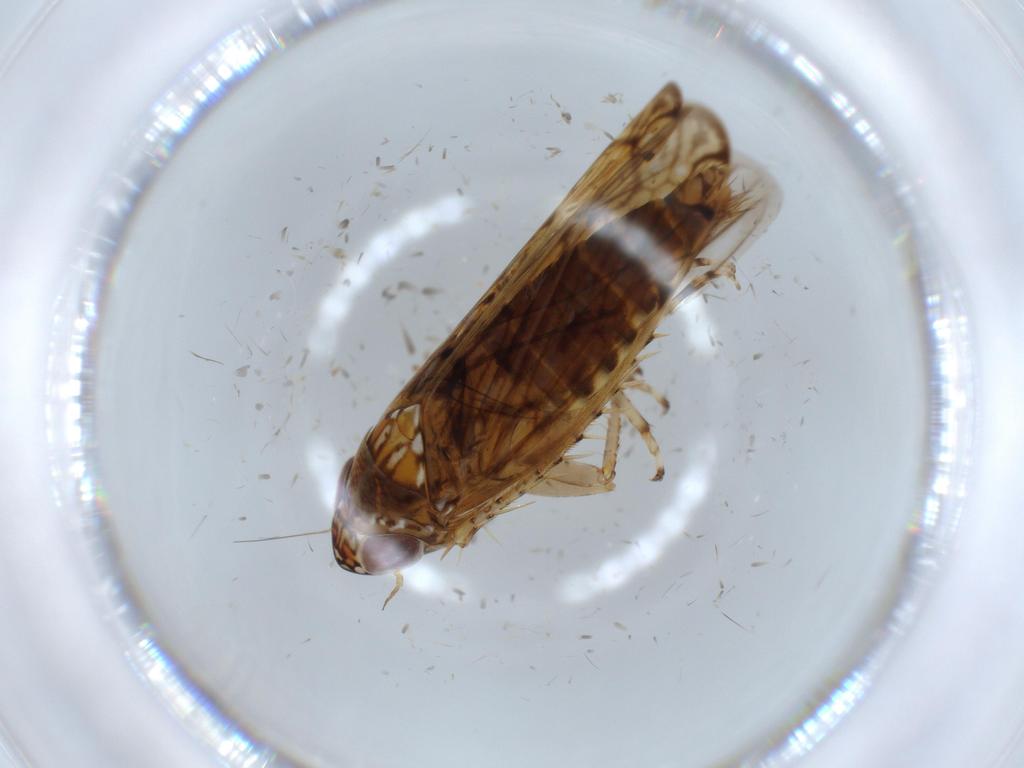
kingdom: Animalia
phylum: Arthropoda
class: Insecta
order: Hemiptera
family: Cicadellidae
